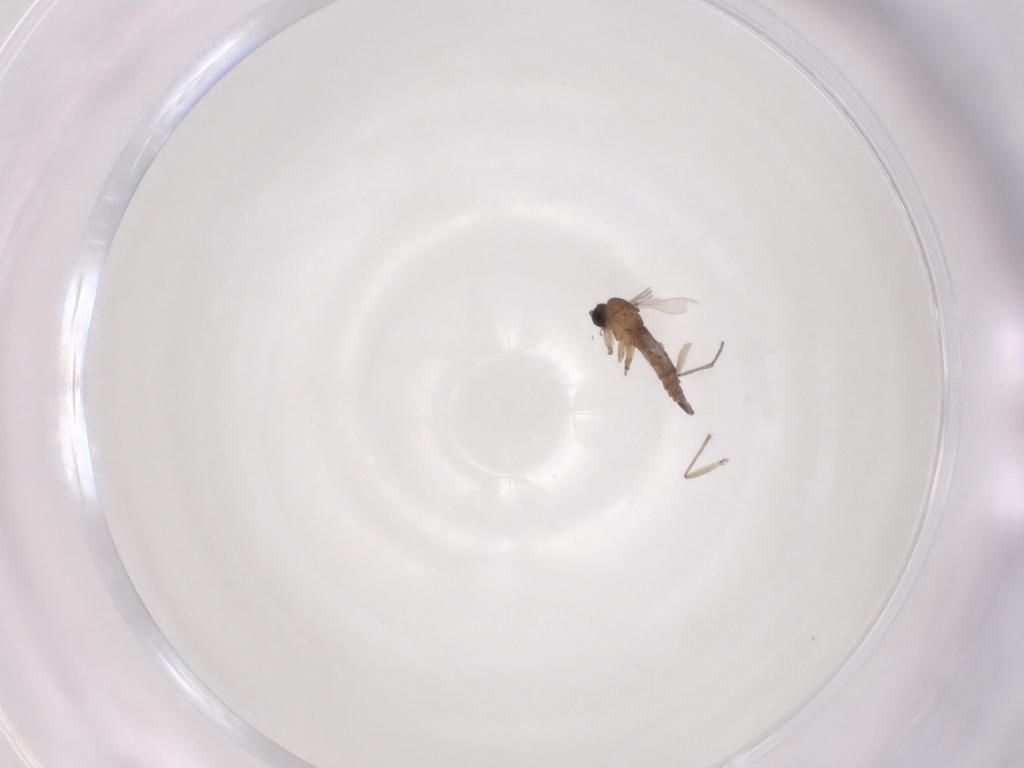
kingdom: Animalia
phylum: Arthropoda
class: Insecta
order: Diptera
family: Sciaridae
